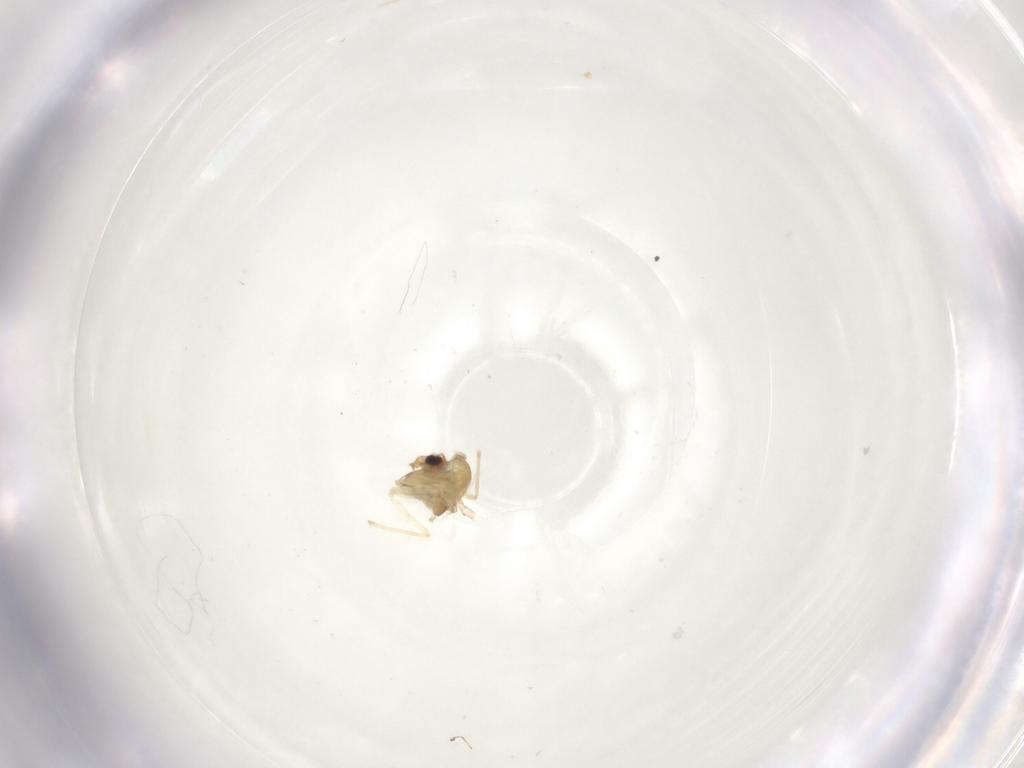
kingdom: Animalia
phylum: Arthropoda
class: Insecta
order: Diptera
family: Chironomidae
